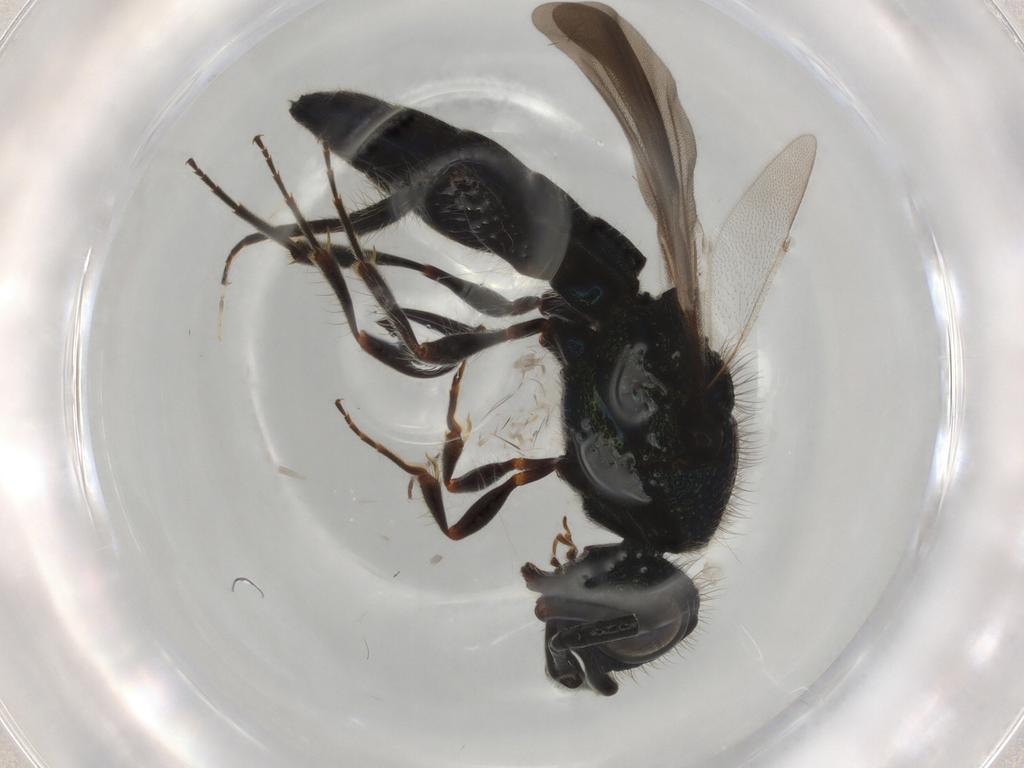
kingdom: Animalia
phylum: Arthropoda
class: Insecta
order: Hymenoptera
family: Scelionidae
